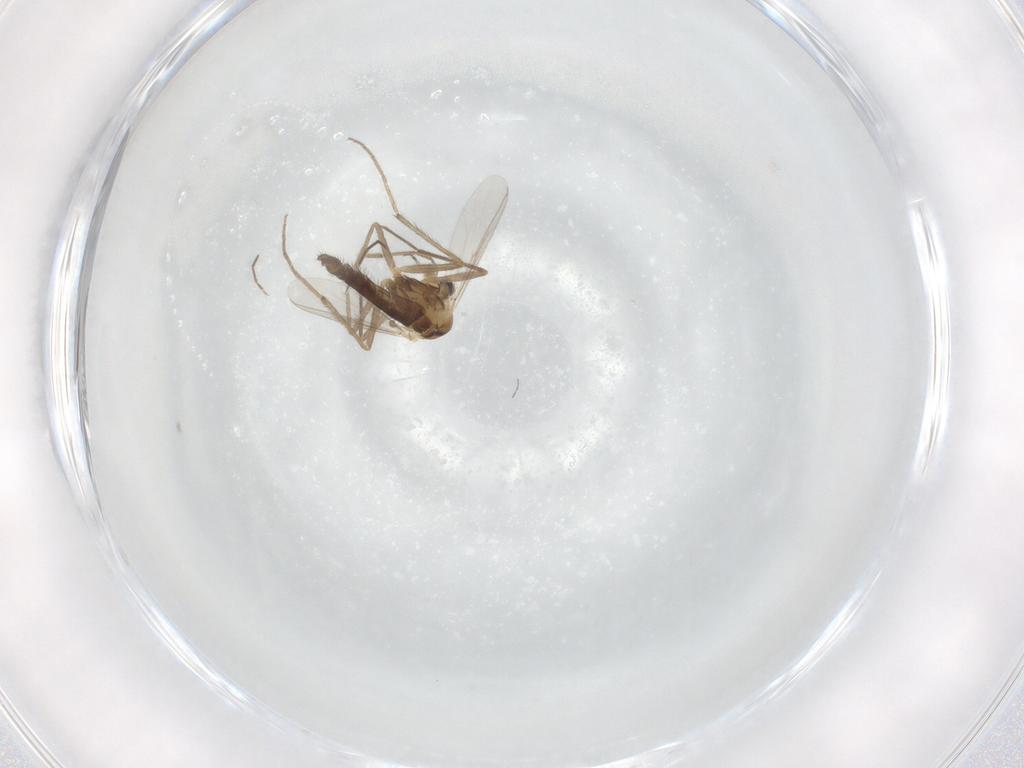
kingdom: Animalia
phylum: Arthropoda
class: Insecta
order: Diptera
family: Chironomidae
